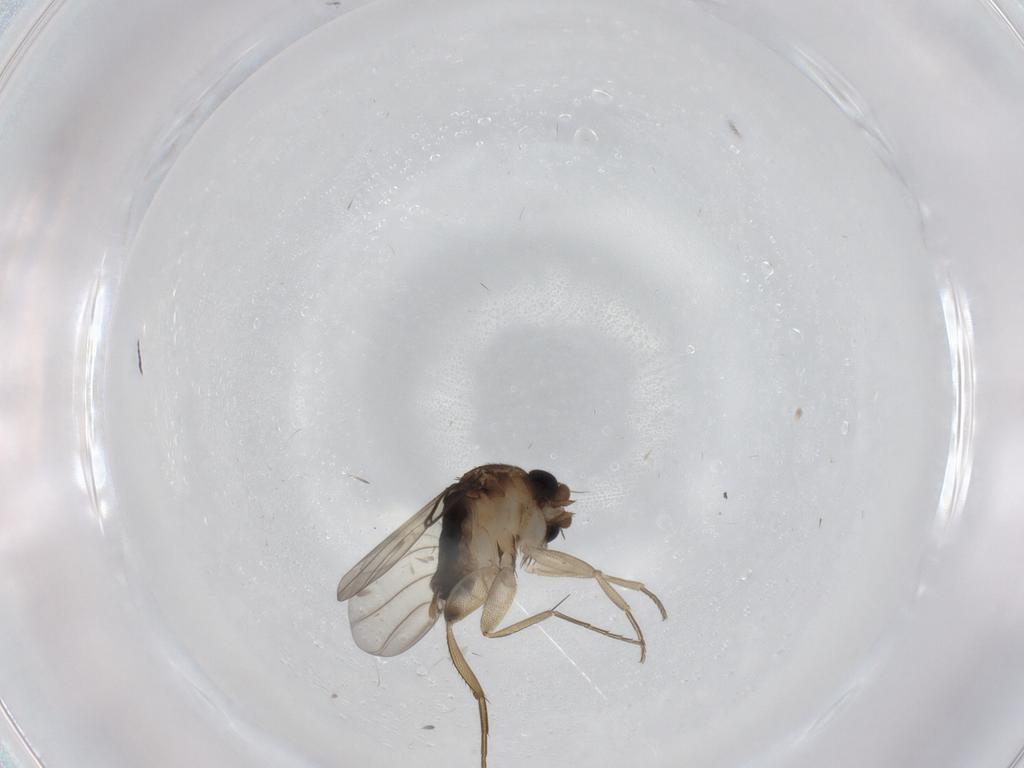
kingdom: Animalia
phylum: Arthropoda
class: Insecta
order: Diptera
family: Phoridae
